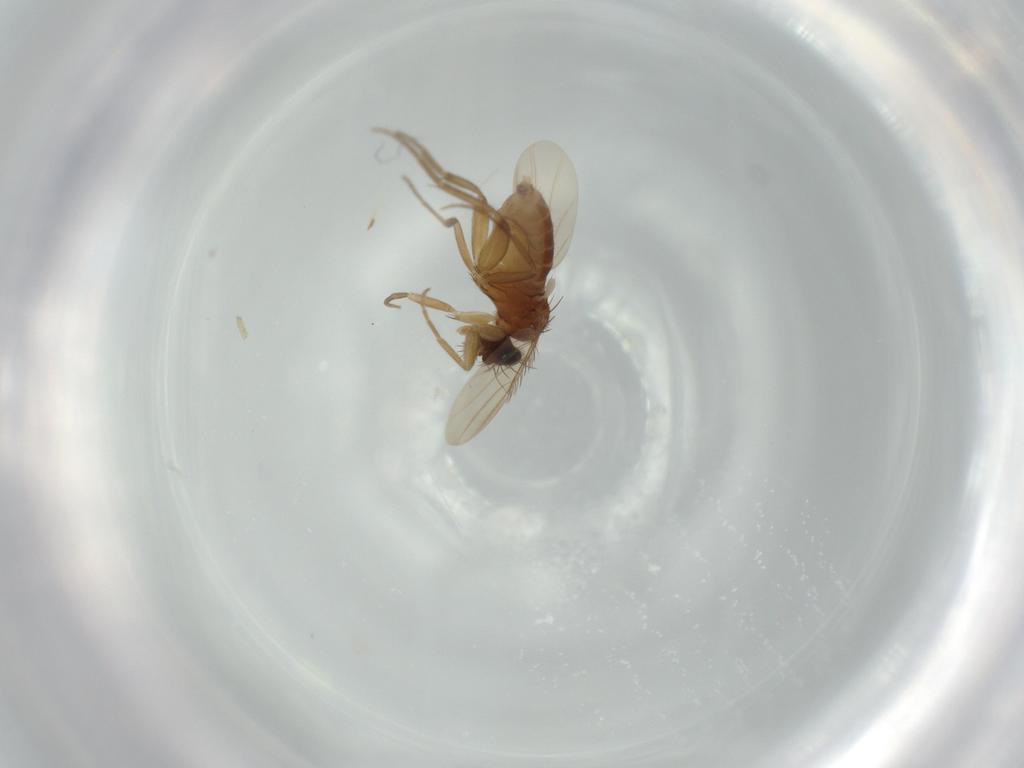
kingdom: Animalia
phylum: Arthropoda
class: Insecta
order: Diptera
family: Phoridae
